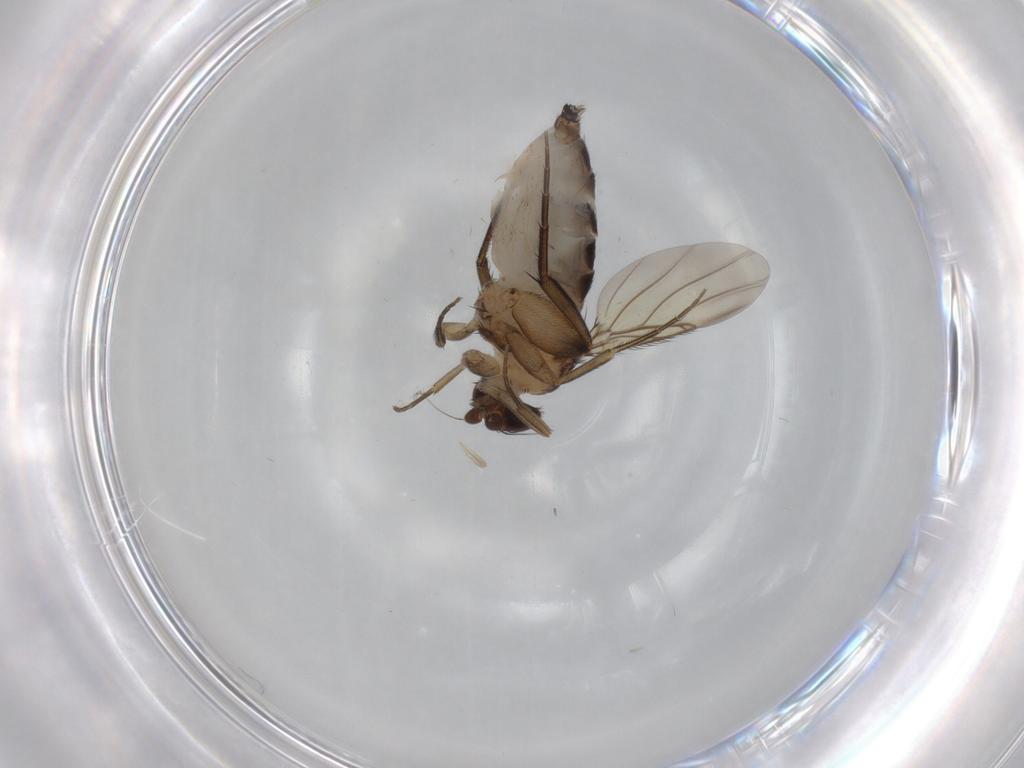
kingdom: Animalia
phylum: Arthropoda
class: Insecta
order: Diptera
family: Phoridae
